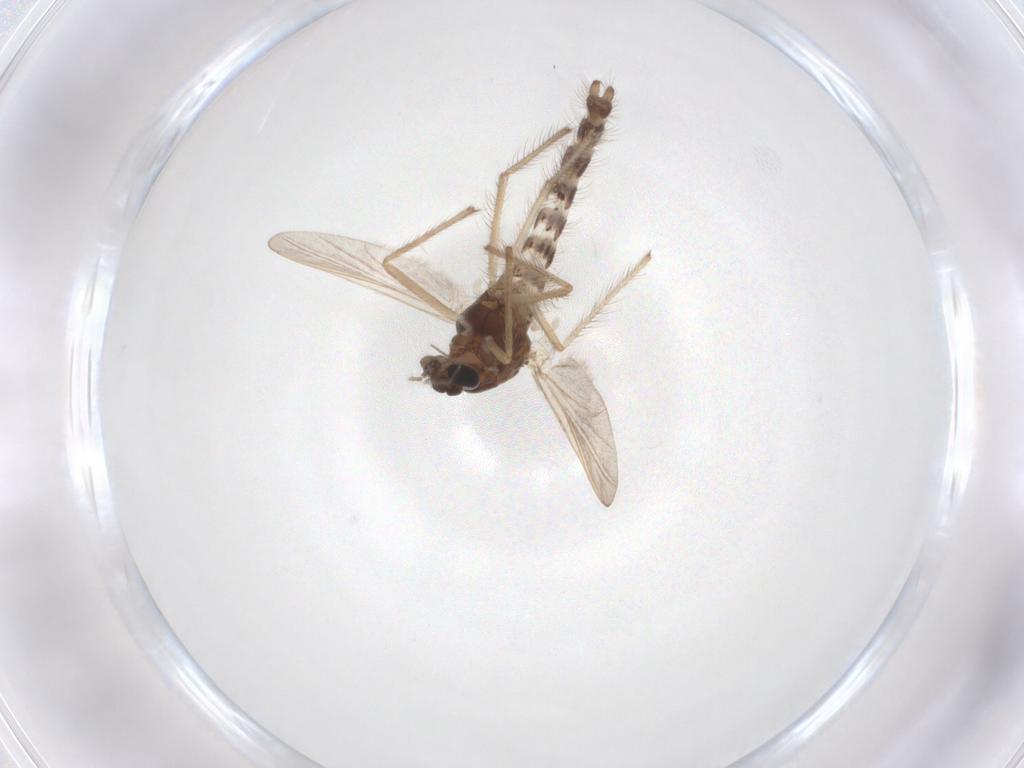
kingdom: Animalia
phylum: Arthropoda
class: Insecta
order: Diptera
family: Chironomidae
